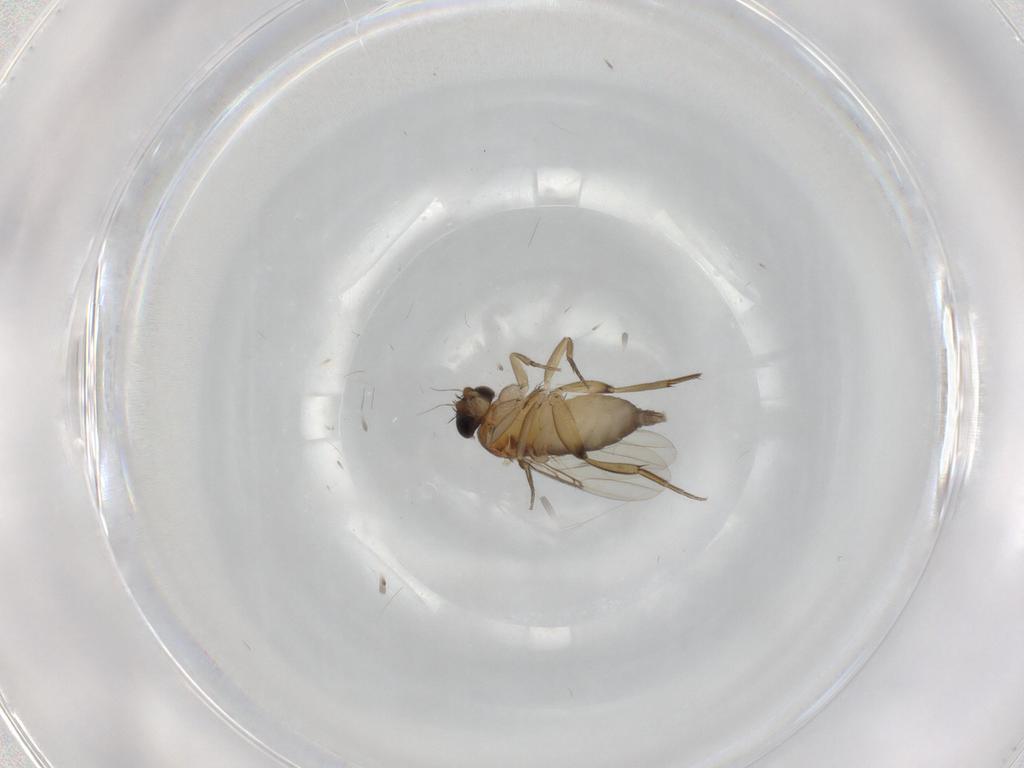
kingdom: Animalia
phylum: Arthropoda
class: Insecta
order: Diptera
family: Phoridae
